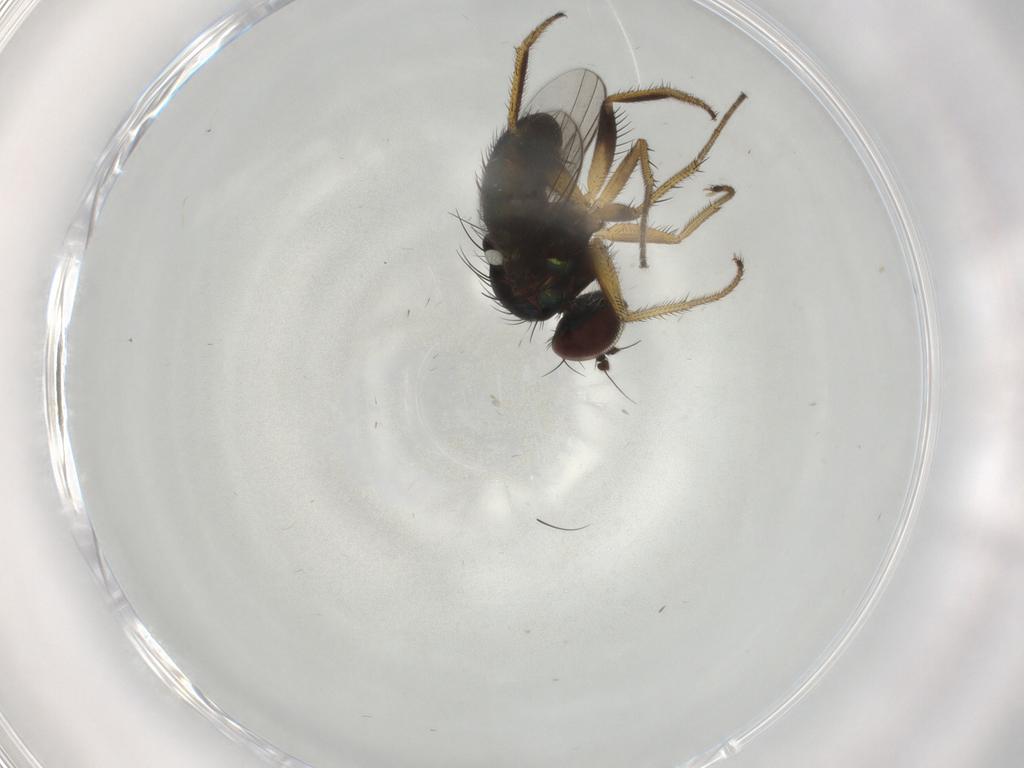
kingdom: Animalia
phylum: Arthropoda
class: Insecta
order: Diptera
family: Dolichopodidae
